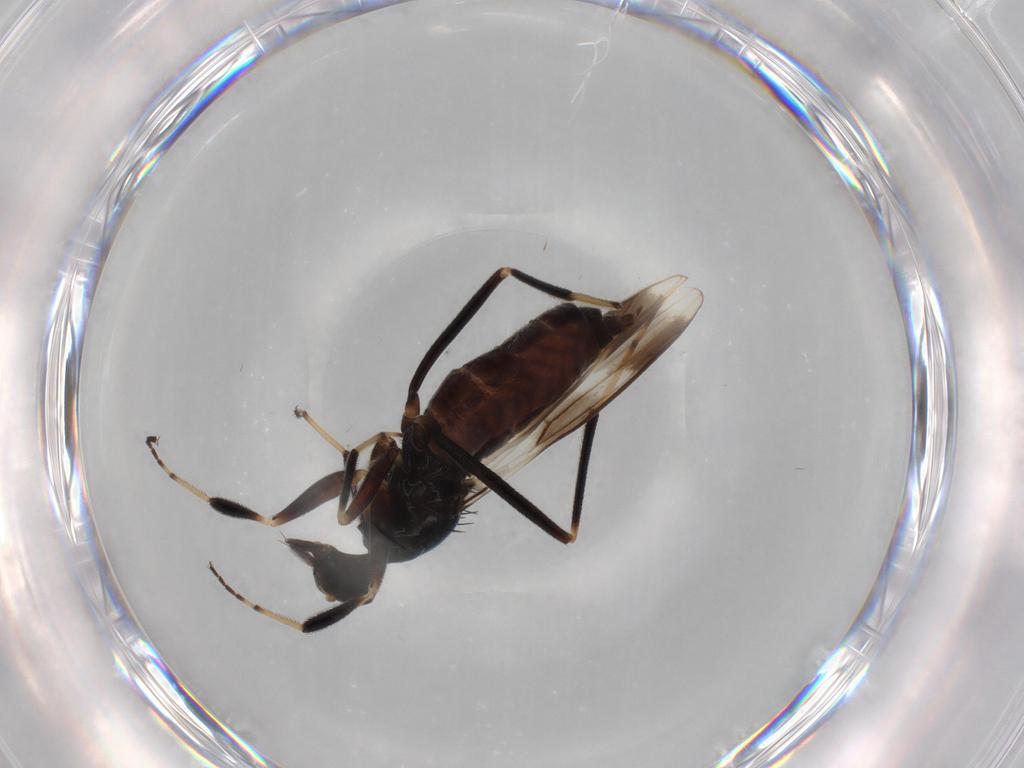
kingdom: Animalia
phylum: Arthropoda
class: Insecta
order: Diptera
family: Hybotidae
